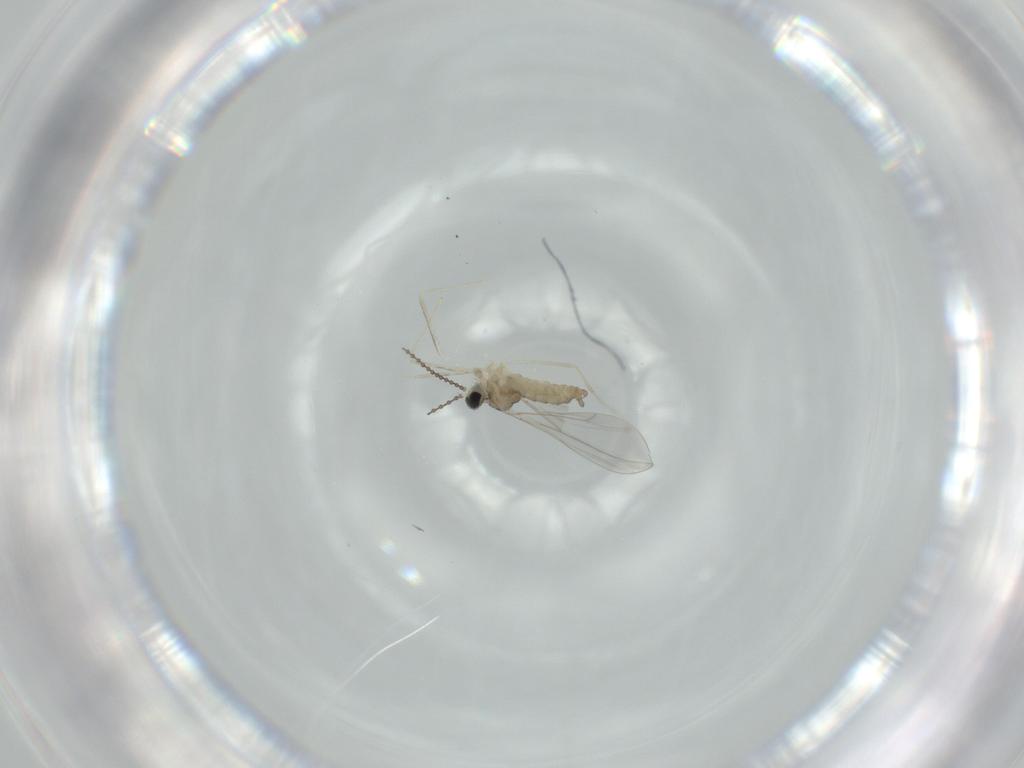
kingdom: Animalia
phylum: Arthropoda
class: Insecta
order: Diptera
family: Cecidomyiidae
